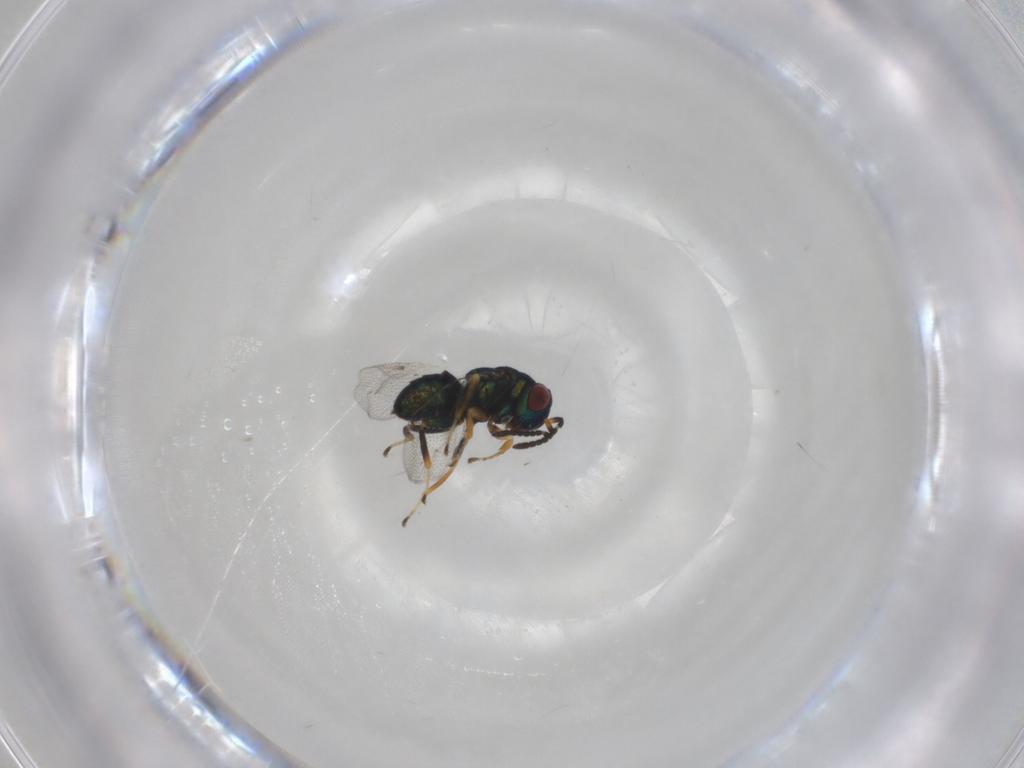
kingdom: Animalia
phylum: Arthropoda
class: Insecta
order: Hymenoptera
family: Pteromalidae
